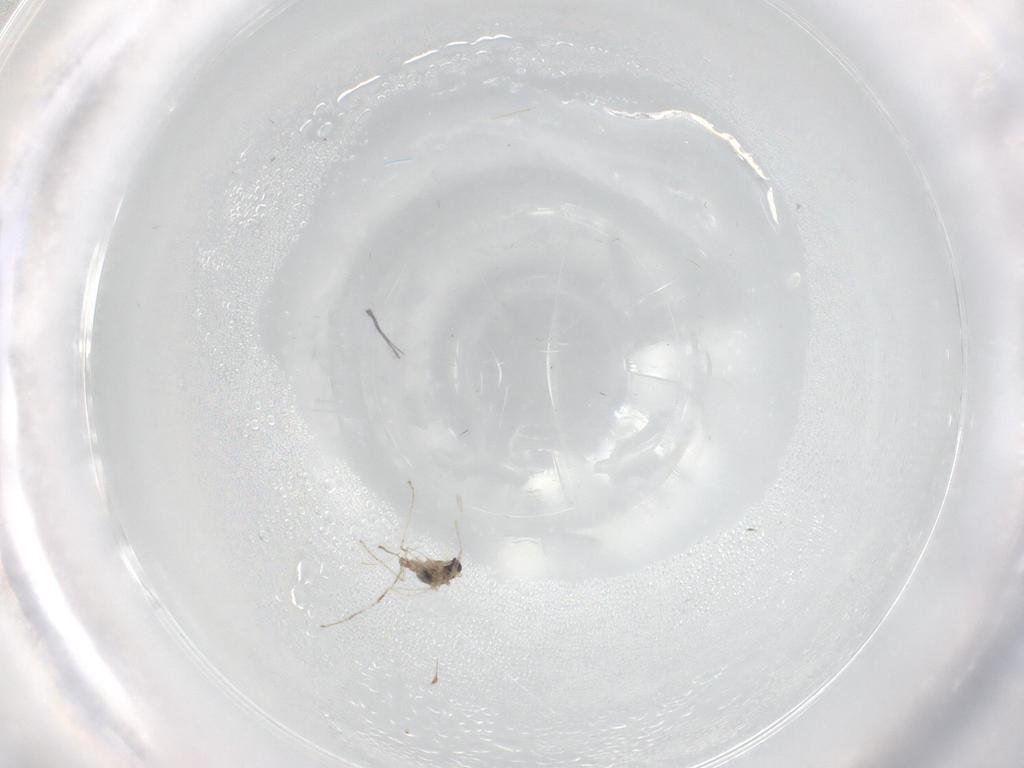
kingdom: Animalia
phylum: Arthropoda
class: Insecta
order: Diptera
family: Cecidomyiidae
